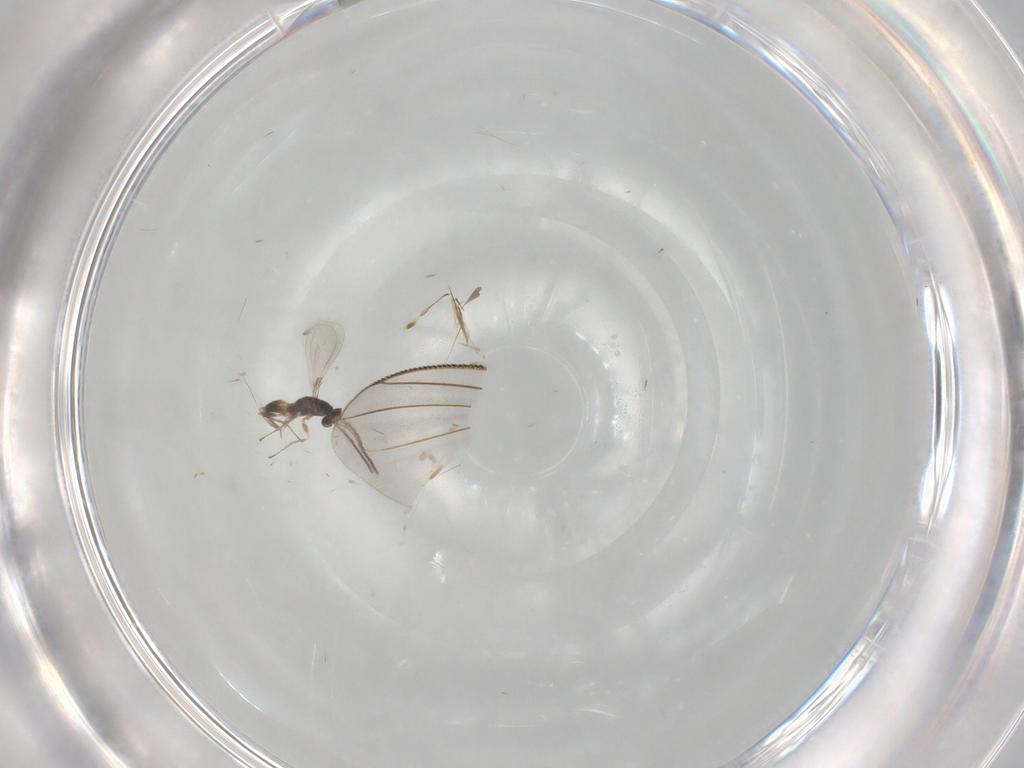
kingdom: Animalia
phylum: Arthropoda
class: Insecta
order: Hymenoptera
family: Mymaridae
